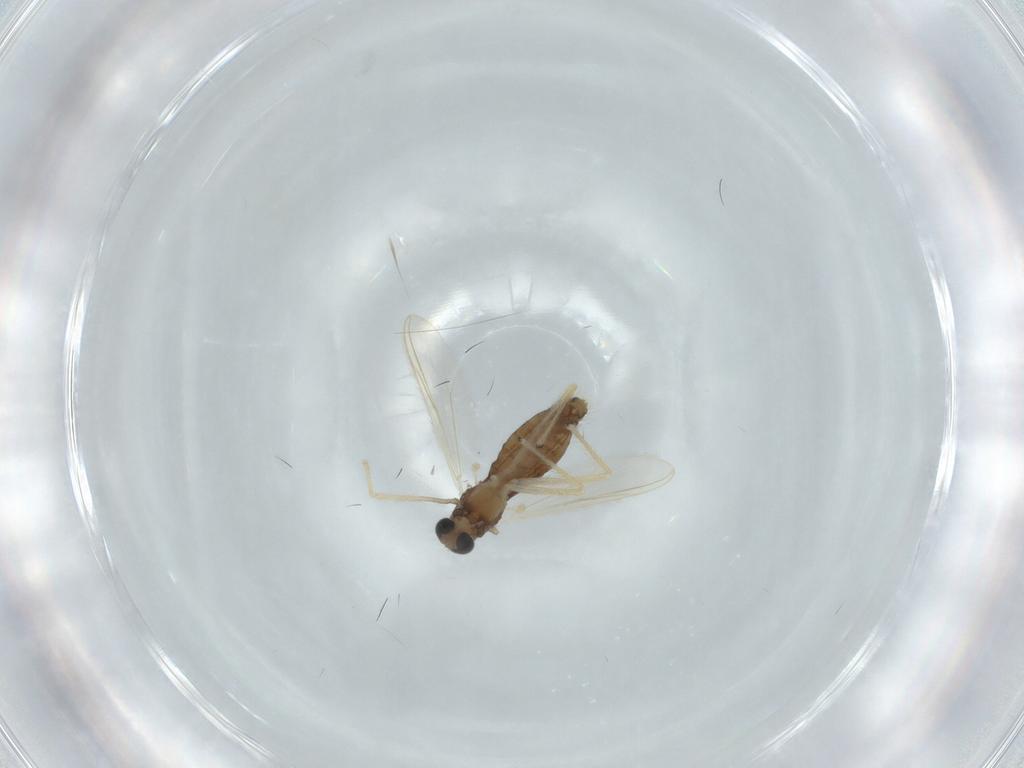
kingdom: Animalia
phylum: Arthropoda
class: Insecta
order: Diptera
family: Chironomidae
